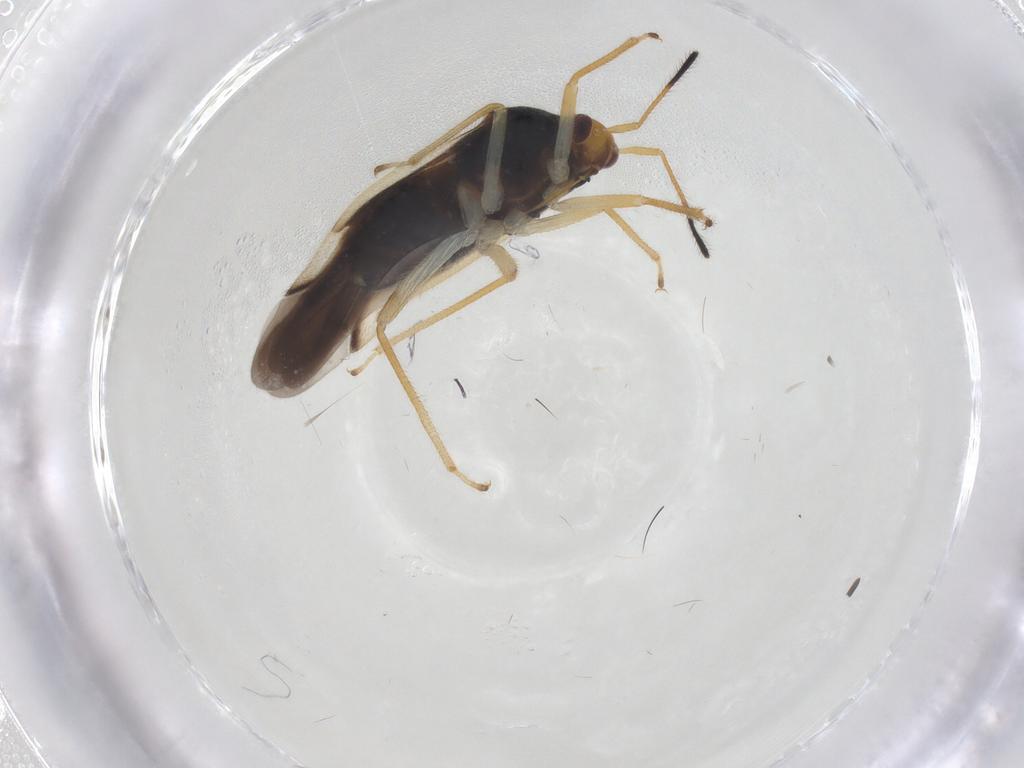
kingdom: Animalia
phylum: Arthropoda
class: Insecta
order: Hemiptera
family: Miridae
